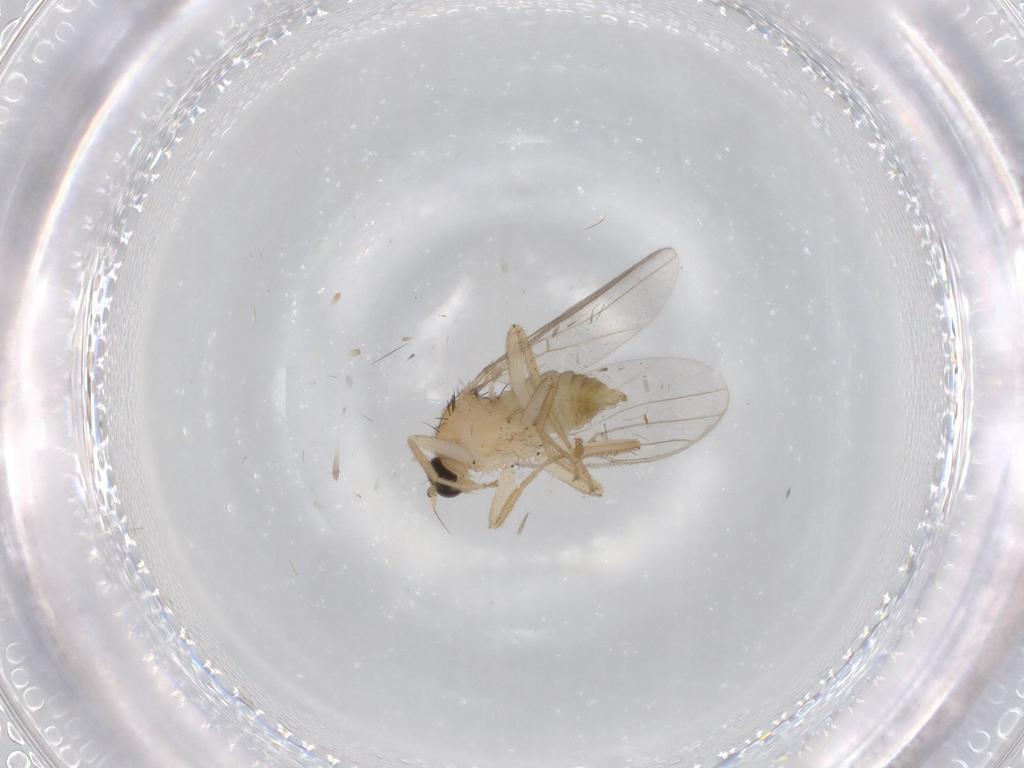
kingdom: Animalia
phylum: Arthropoda
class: Insecta
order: Diptera
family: Hybotidae
